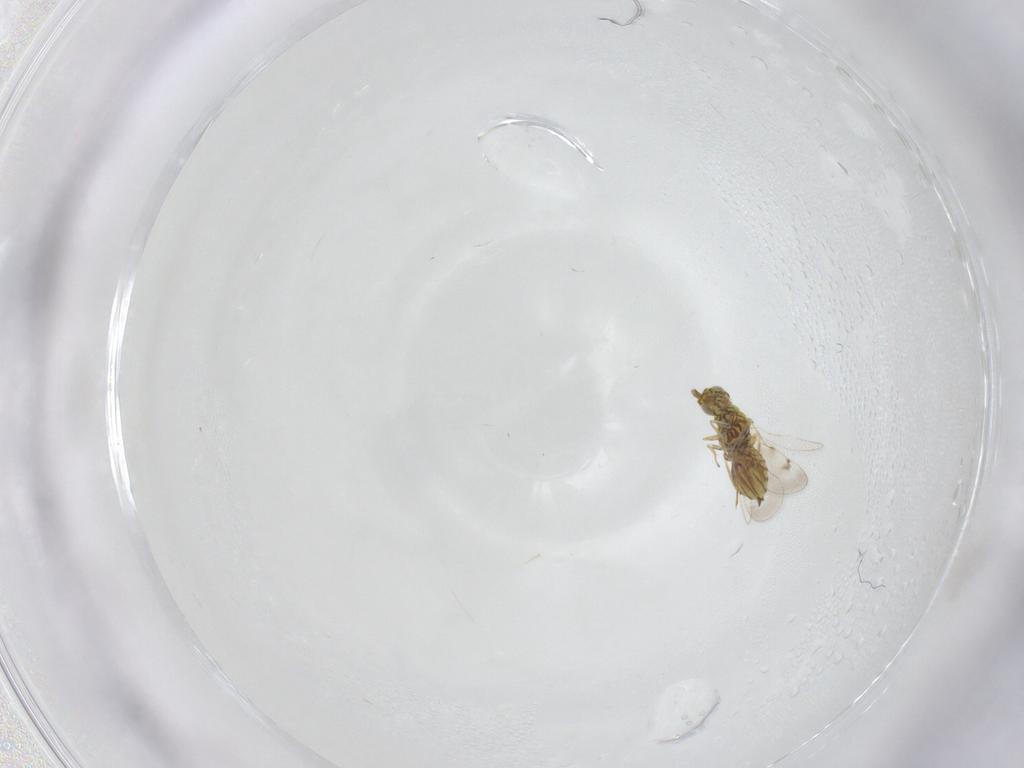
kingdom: Animalia
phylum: Arthropoda
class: Insecta
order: Hymenoptera
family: Eulophidae
